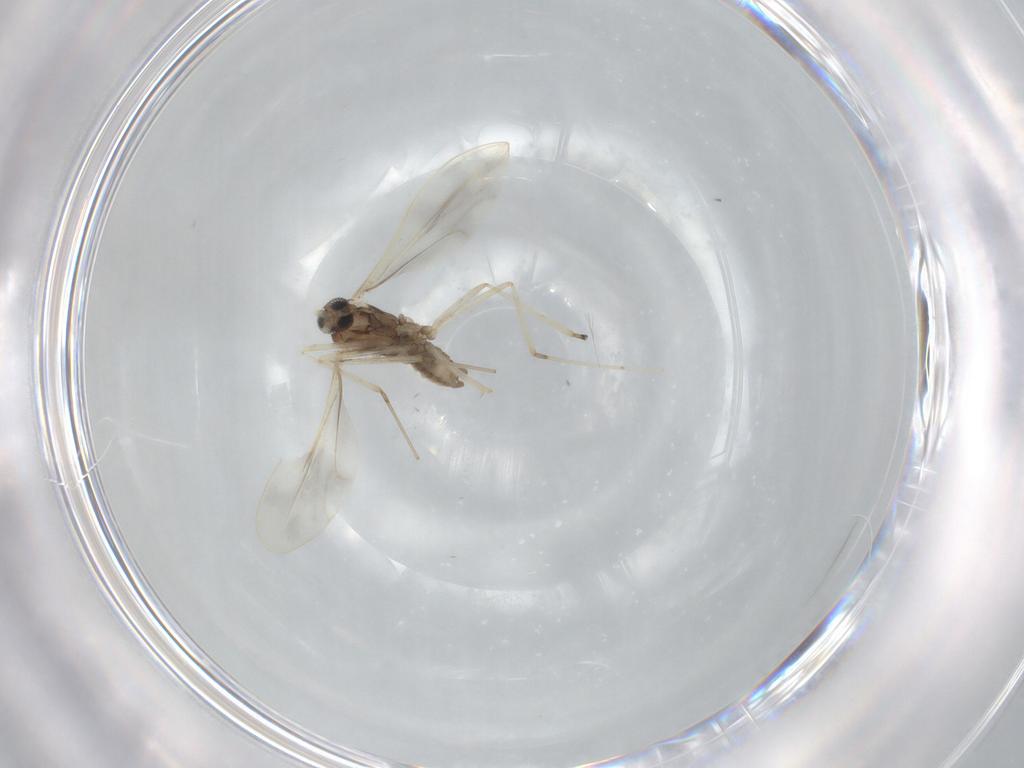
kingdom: Animalia
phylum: Arthropoda
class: Insecta
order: Diptera
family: Cecidomyiidae
